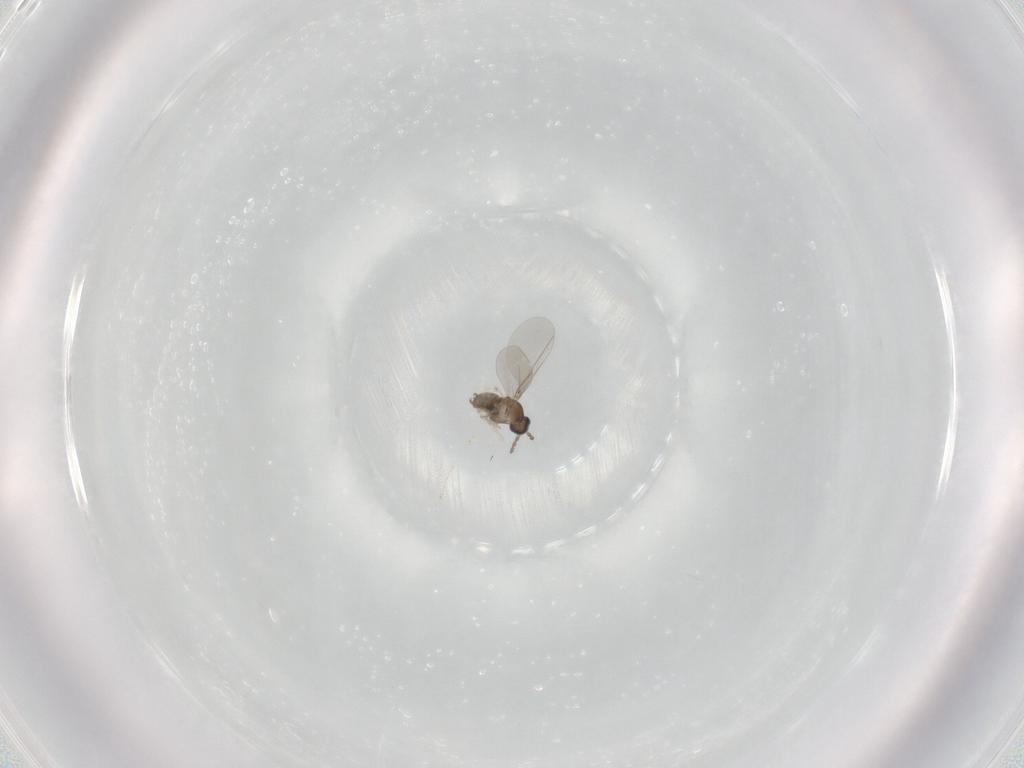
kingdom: Animalia
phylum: Arthropoda
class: Insecta
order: Diptera
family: Cecidomyiidae
